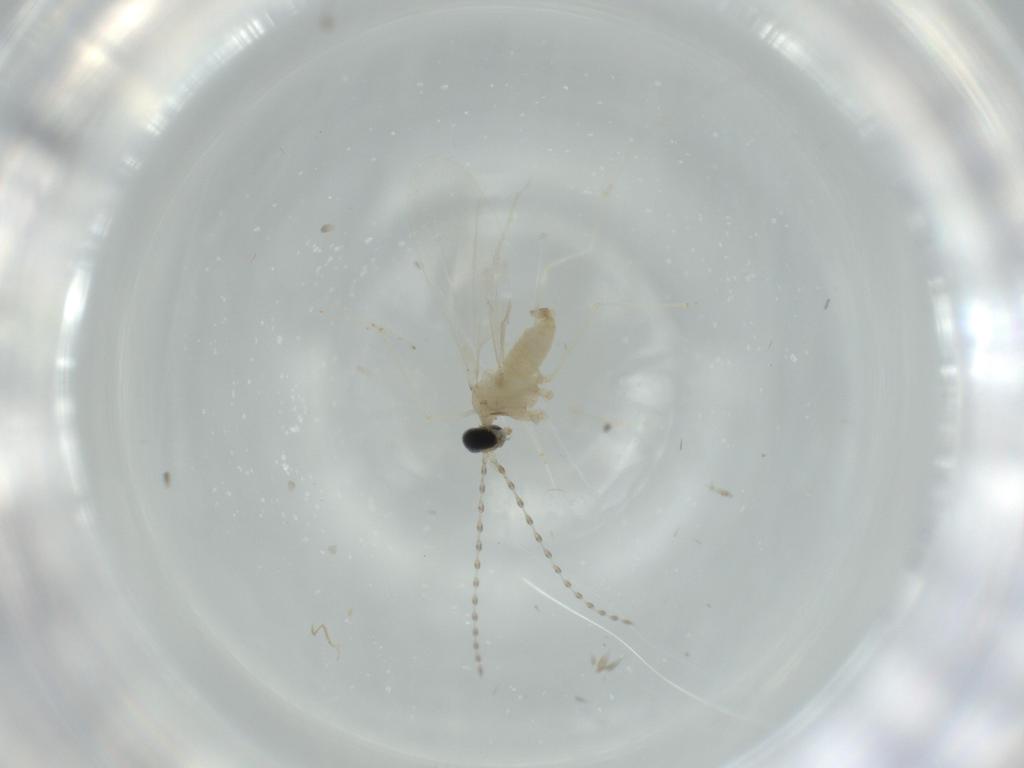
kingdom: Animalia
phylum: Arthropoda
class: Insecta
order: Diptera
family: Cecidomyiidae
